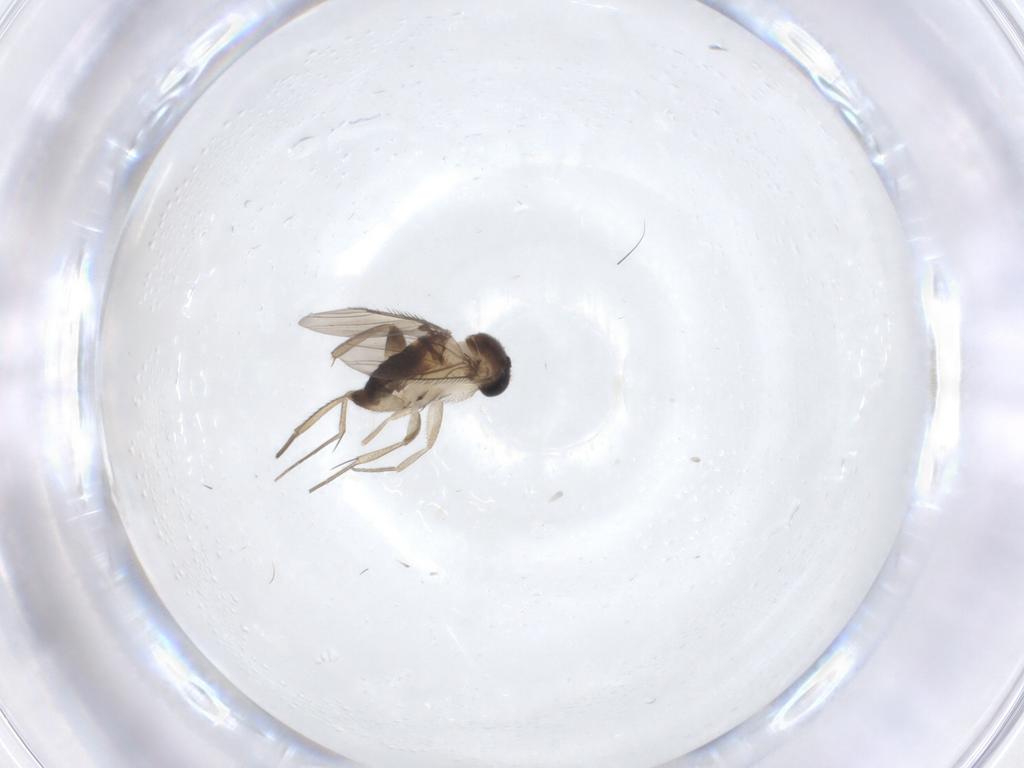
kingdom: Animalia
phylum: Arthropoda
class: Insecta
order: Diptera
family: Phoridae
